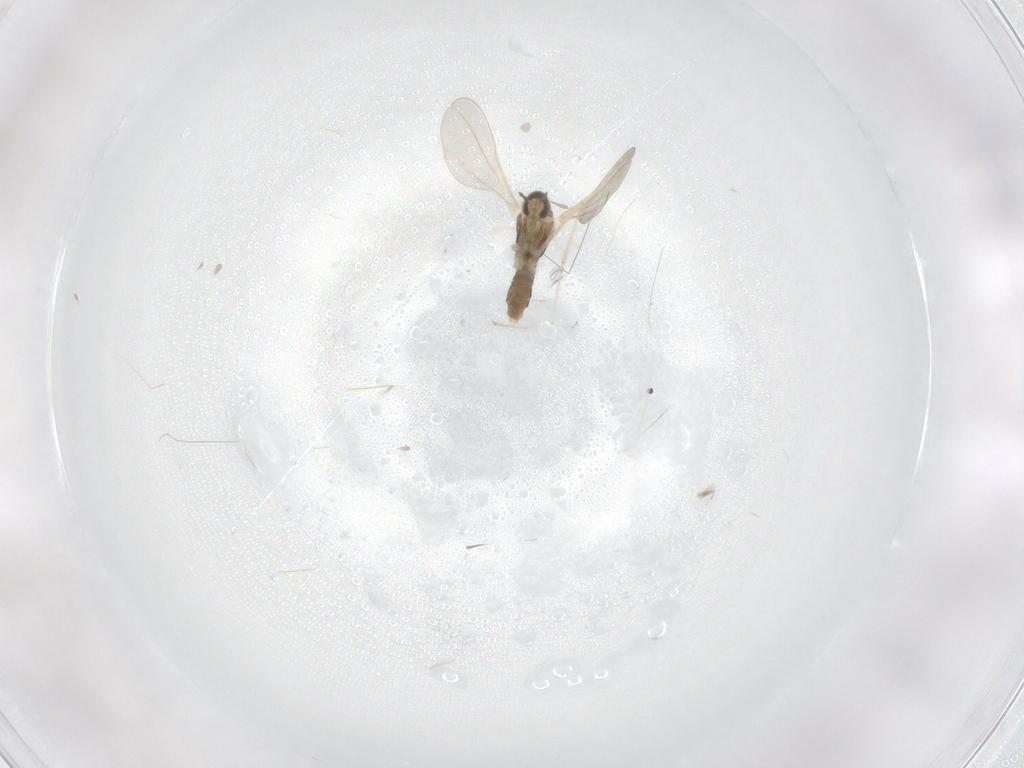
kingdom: Animalia
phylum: Arthropoda
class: Insecta
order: Diptera
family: Cecidomyiidae
